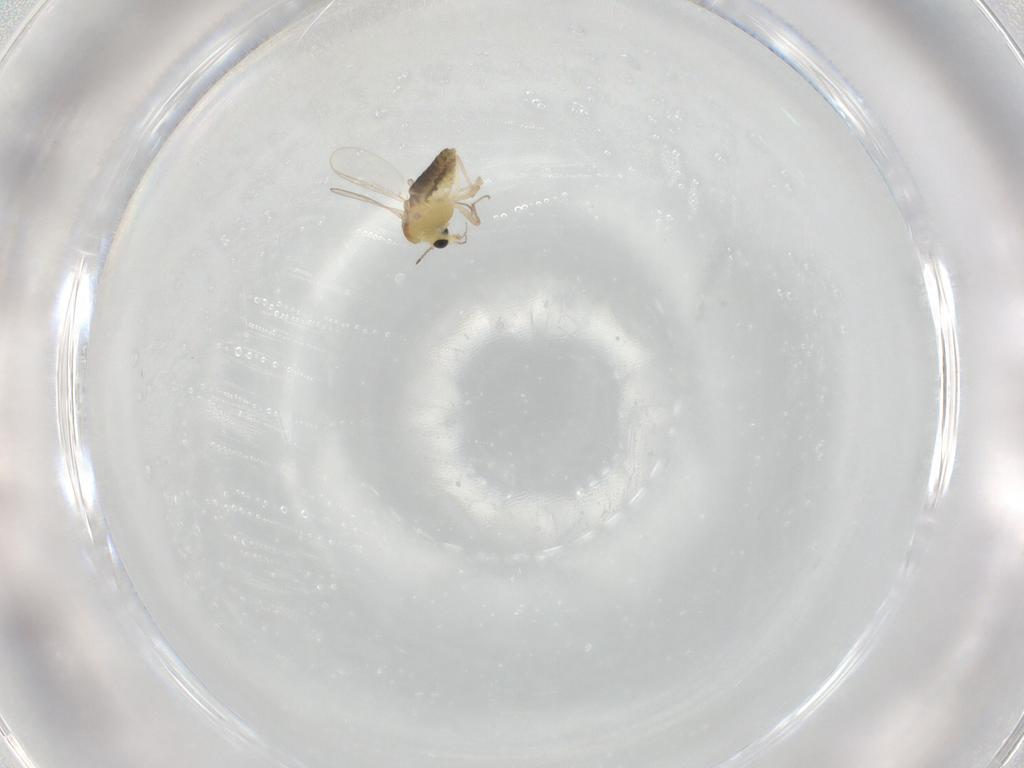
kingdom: Animalia
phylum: Arthropoda
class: Insecta
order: Diptera
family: Chironomidae
